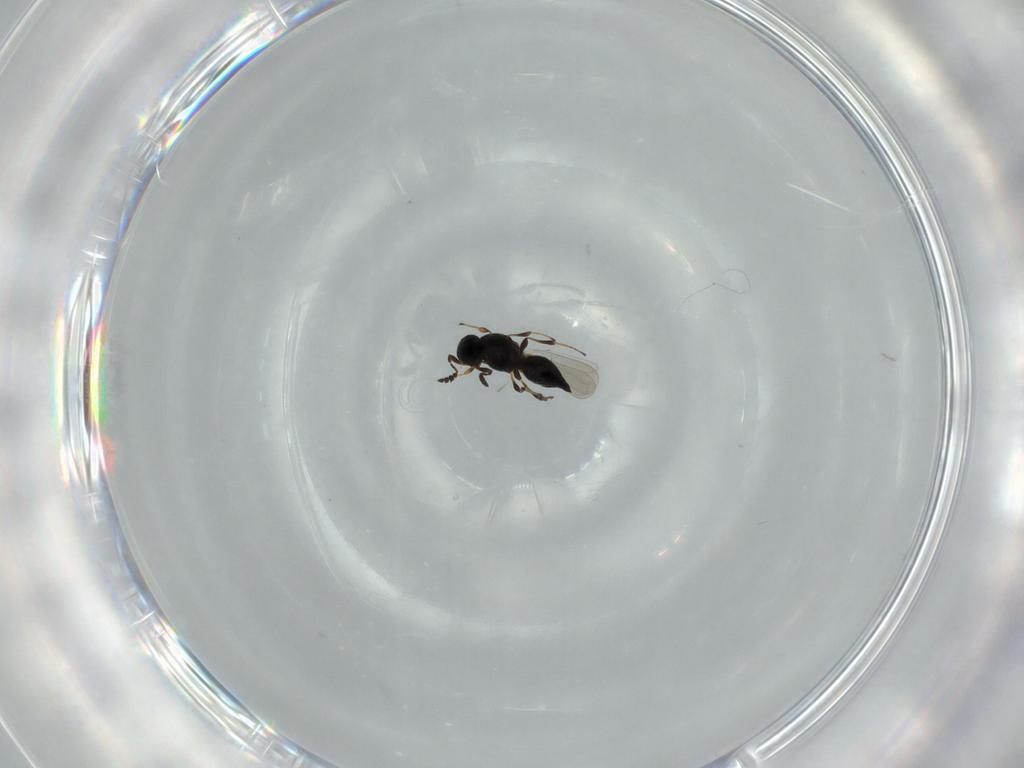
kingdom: Animalia
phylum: Arthropoda
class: Insecta
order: Hymenoptera
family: Platygastridae
